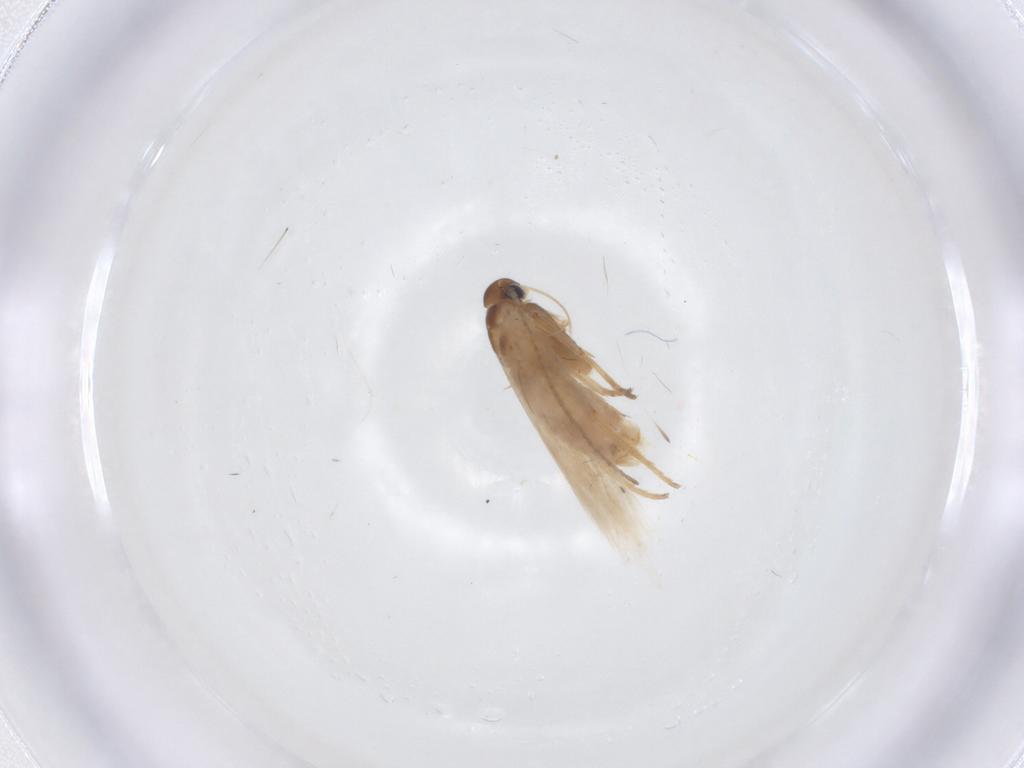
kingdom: Animalia
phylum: Arthropoda
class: Insecta
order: Lepidoptera
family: Gelechiidae
